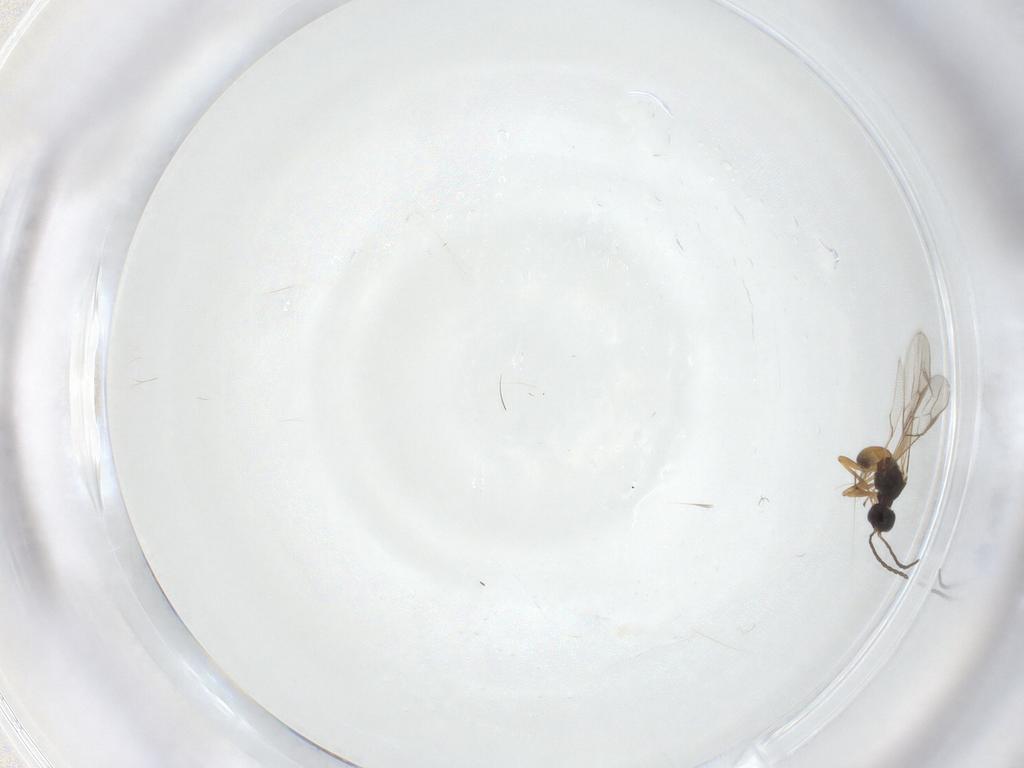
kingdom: Animalia
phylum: Arthropoda
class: Insecta
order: Hymenoptera
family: Braconidae
